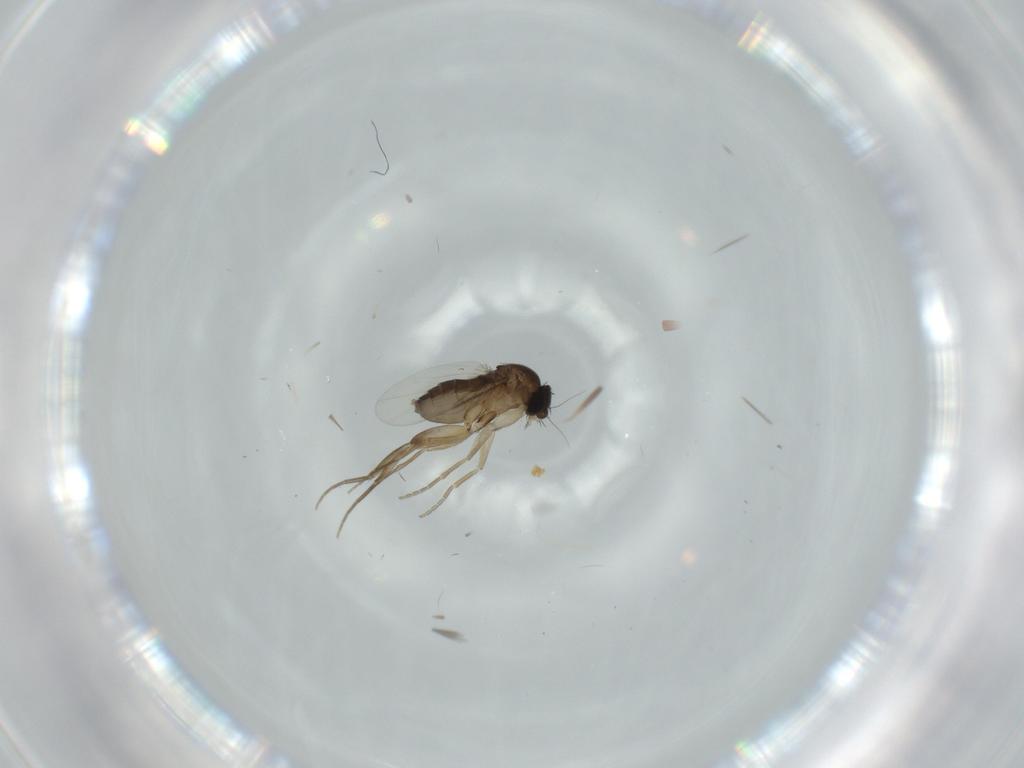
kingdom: Animalia
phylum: Arthropoda
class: Insecta
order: Diptera
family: Phoridae
